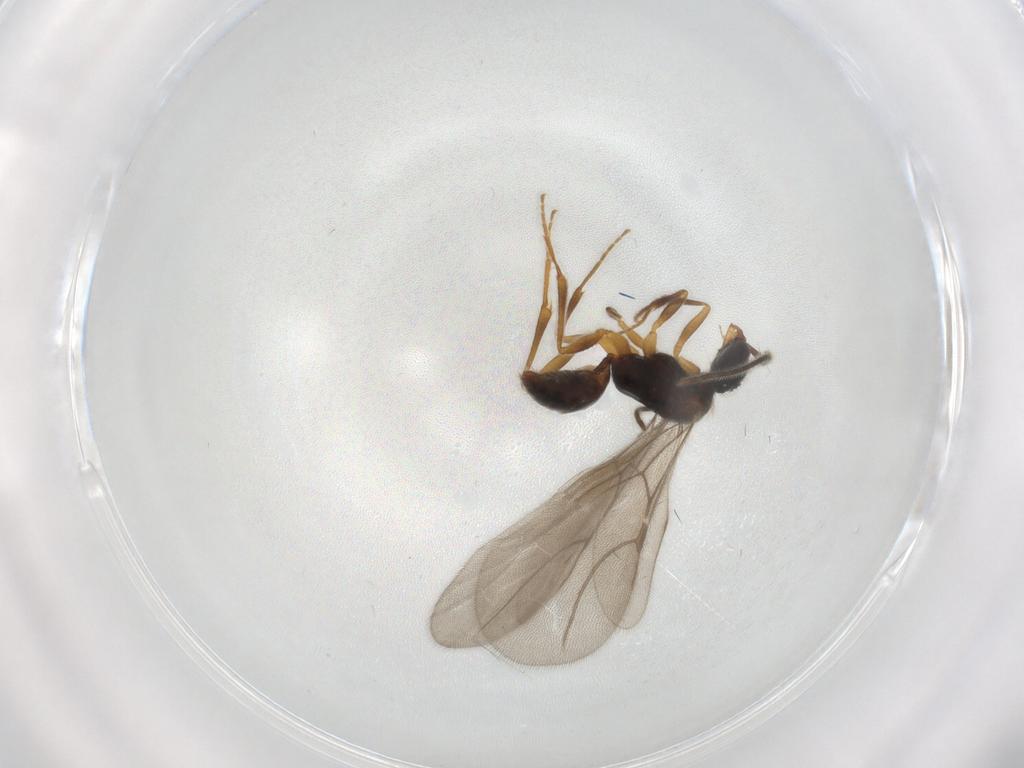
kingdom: Animalia
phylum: Arthropoda
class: Insecta
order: Hymenoptera
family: Bethylidae
